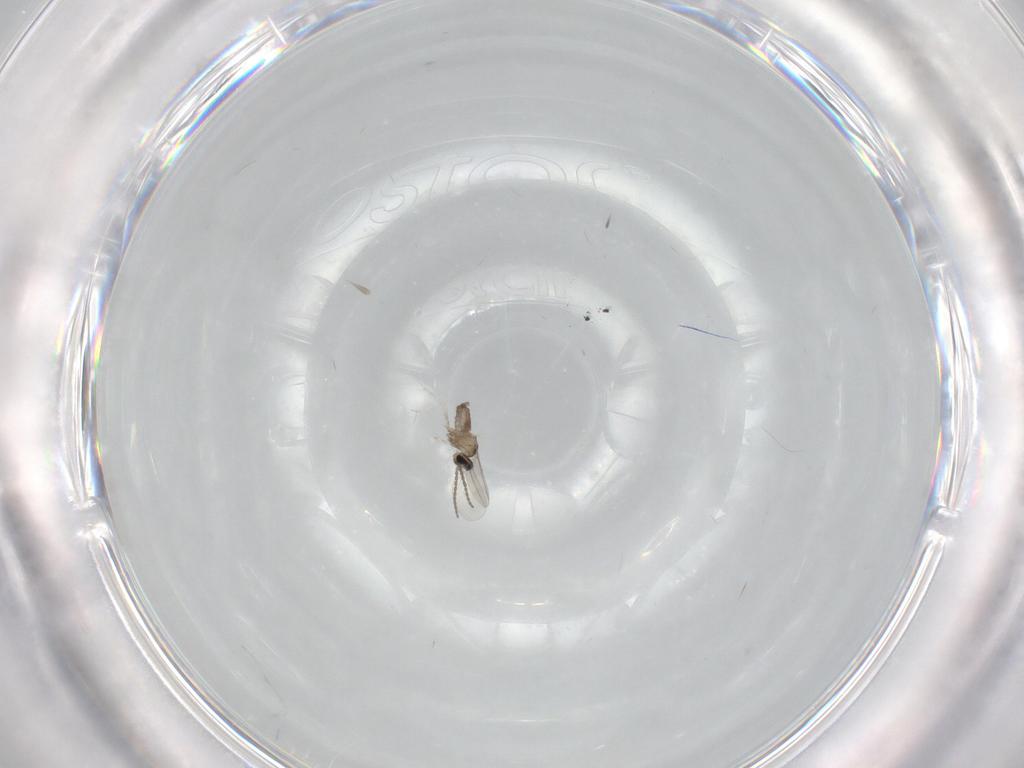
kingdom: Animalia
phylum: Arthropoda
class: Insecta
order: Diptera
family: Cecidomyiidae
